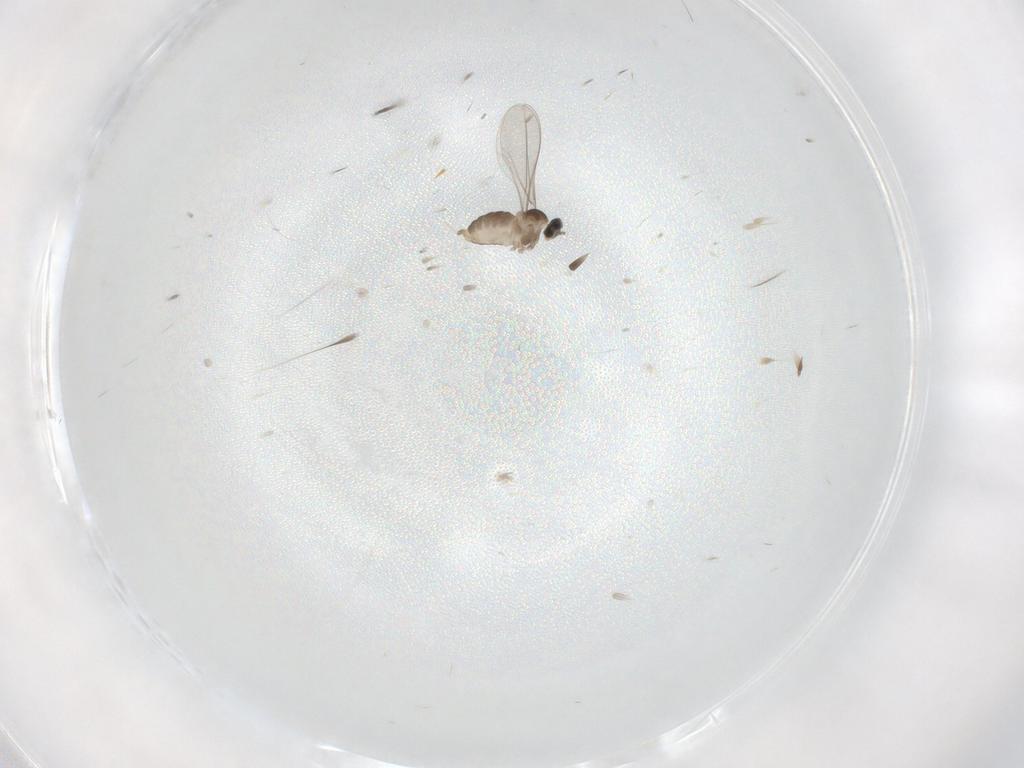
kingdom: Animalia
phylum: Arthropoda
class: Insecta
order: Diptera
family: Cecidomyiidae
